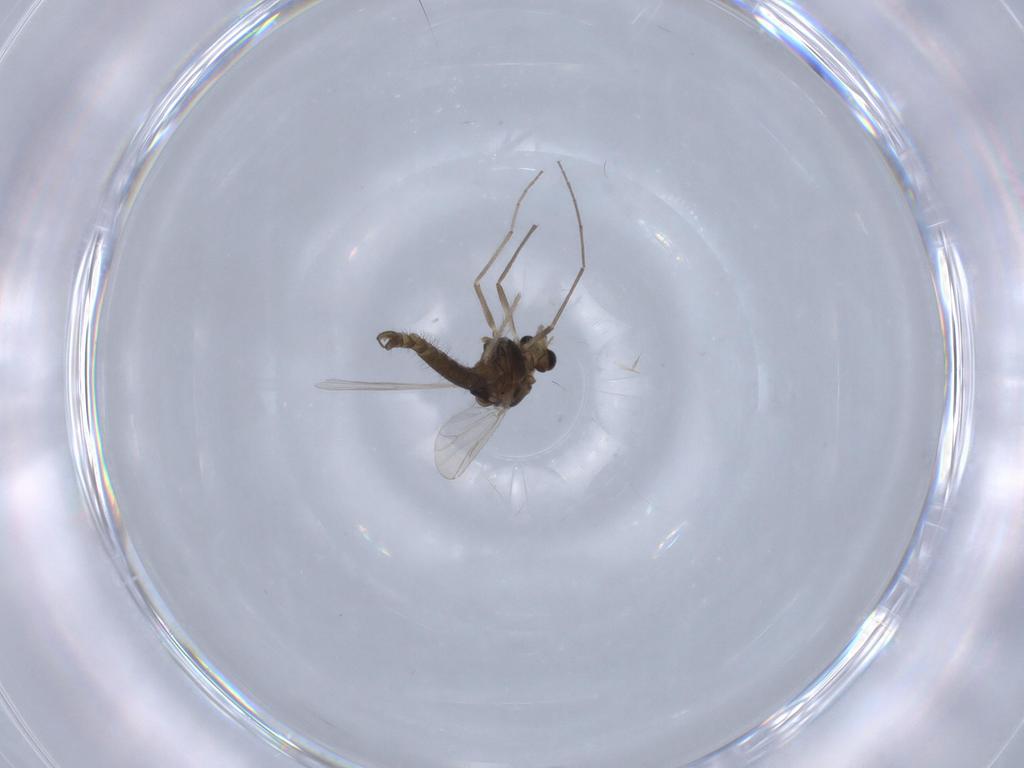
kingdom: Animalia
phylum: Arthropoda
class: Insecta
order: Diptera
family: Chironomidae
